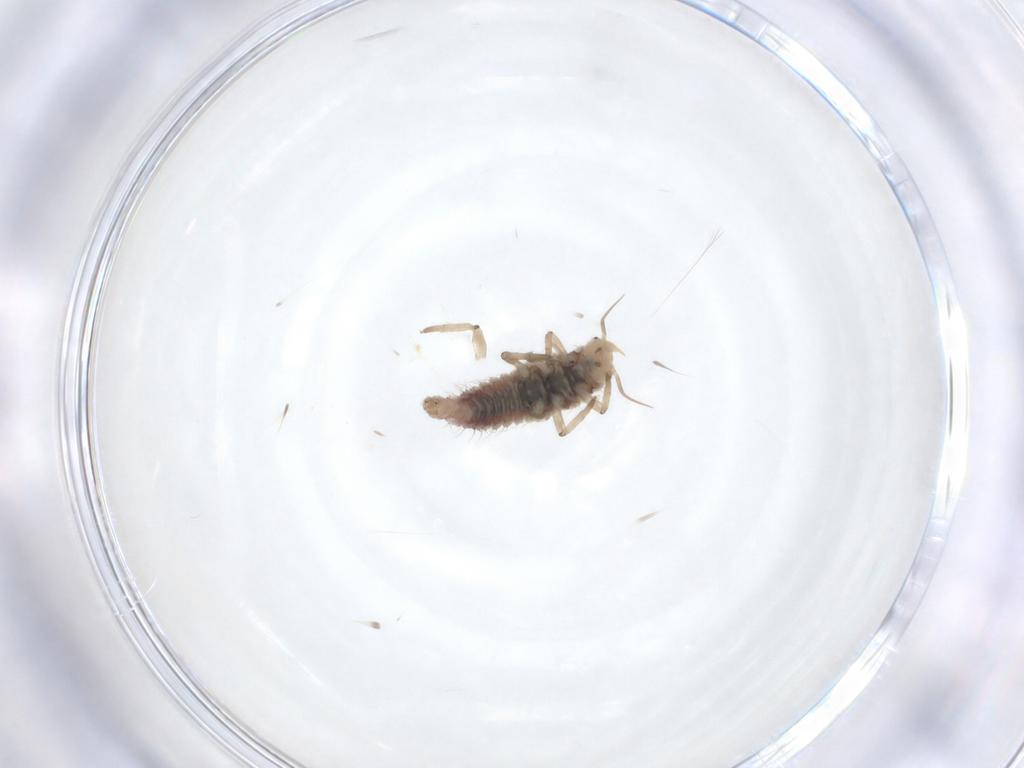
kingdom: Animalia
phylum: Arthropoda
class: Insecta
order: Neuroptera
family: Hemerobiidae
